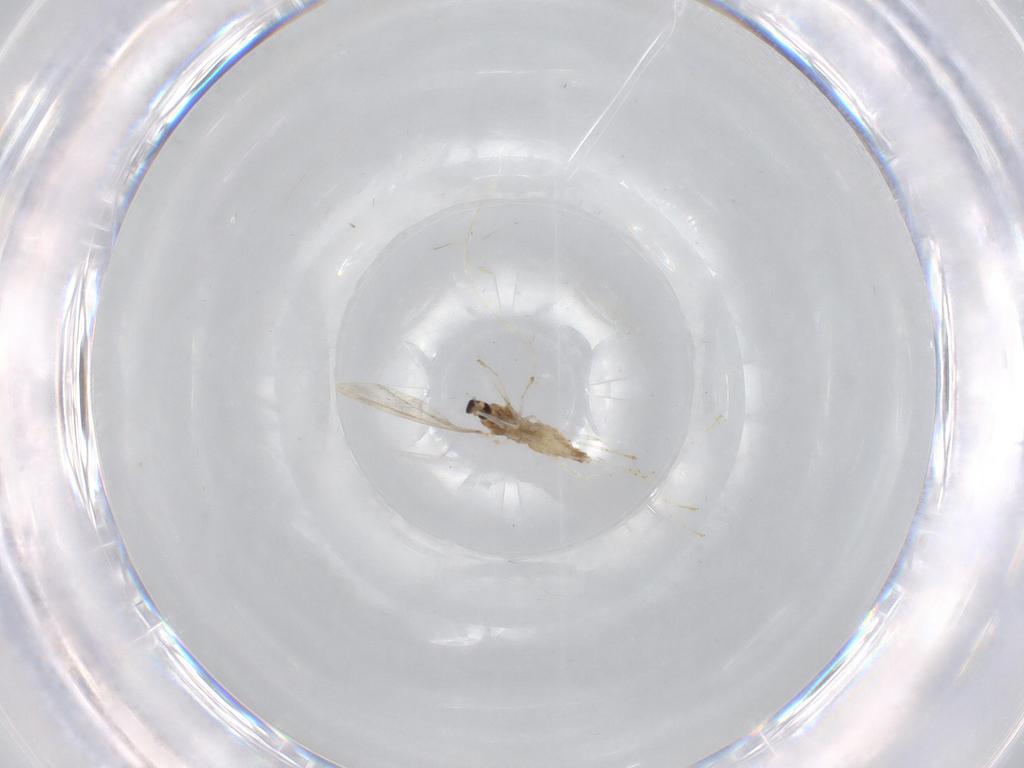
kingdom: Animalia
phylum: Arthropoda
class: Insecta
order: Diptera
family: Cecidomyiidae
